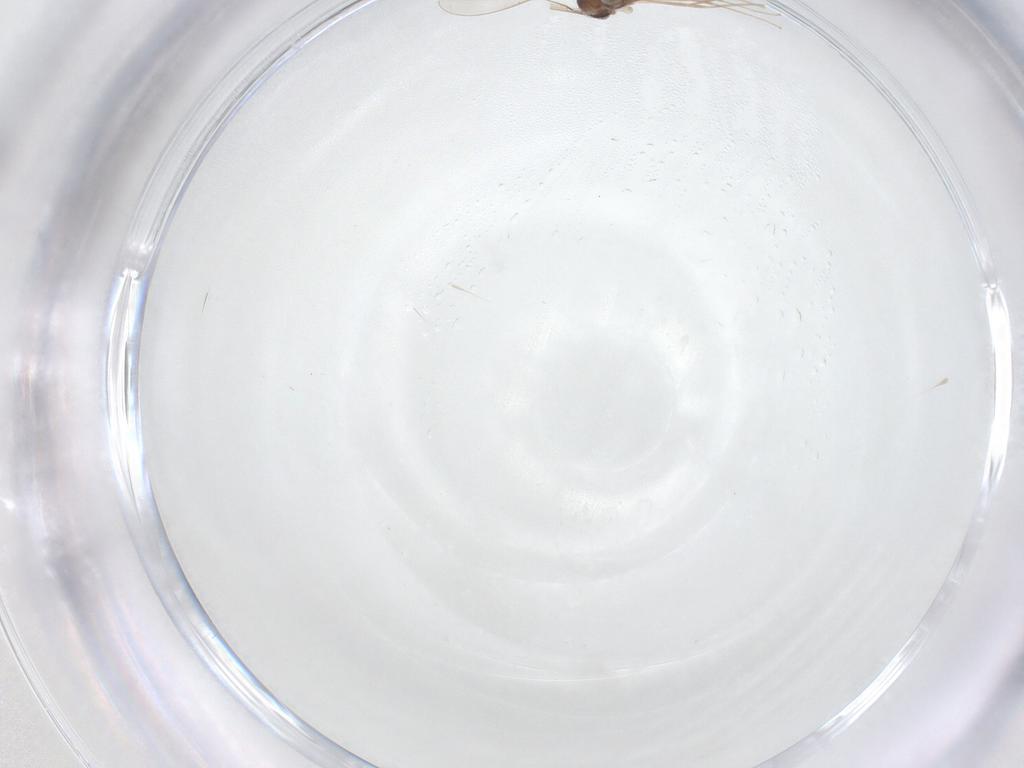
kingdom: Animalia
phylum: Arthropoda
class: Insecta
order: Diptera
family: Cecidomyiidae
